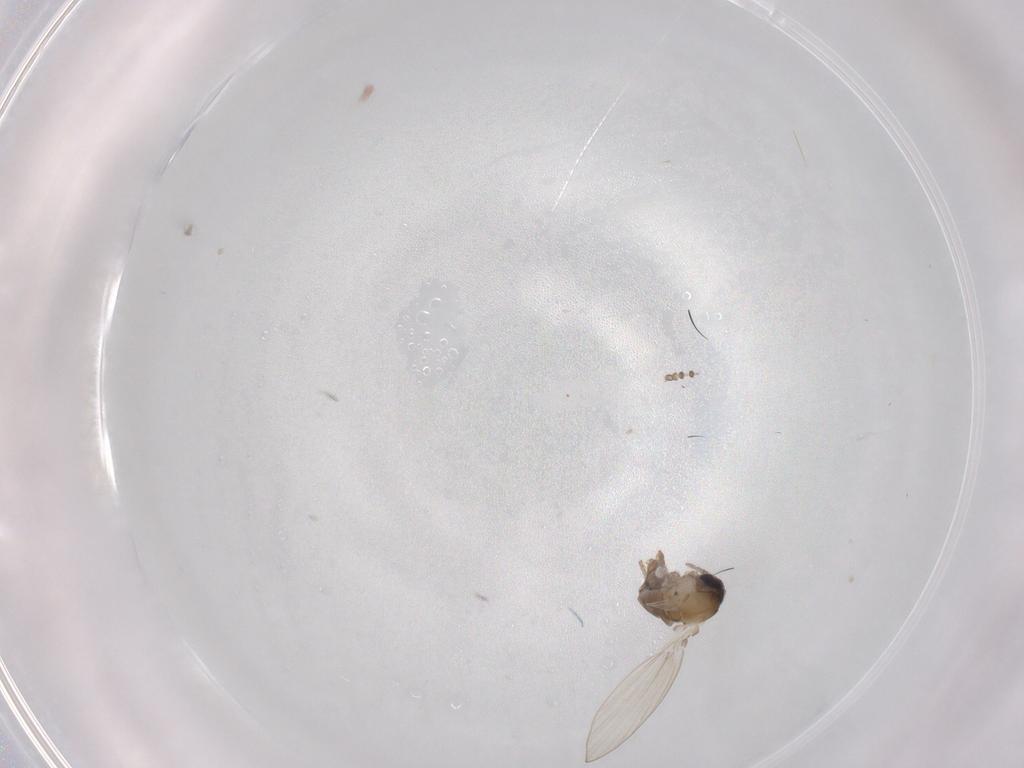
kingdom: Animalia
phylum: Arthropoda
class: Insecta
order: Diptera
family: Psychodidae
